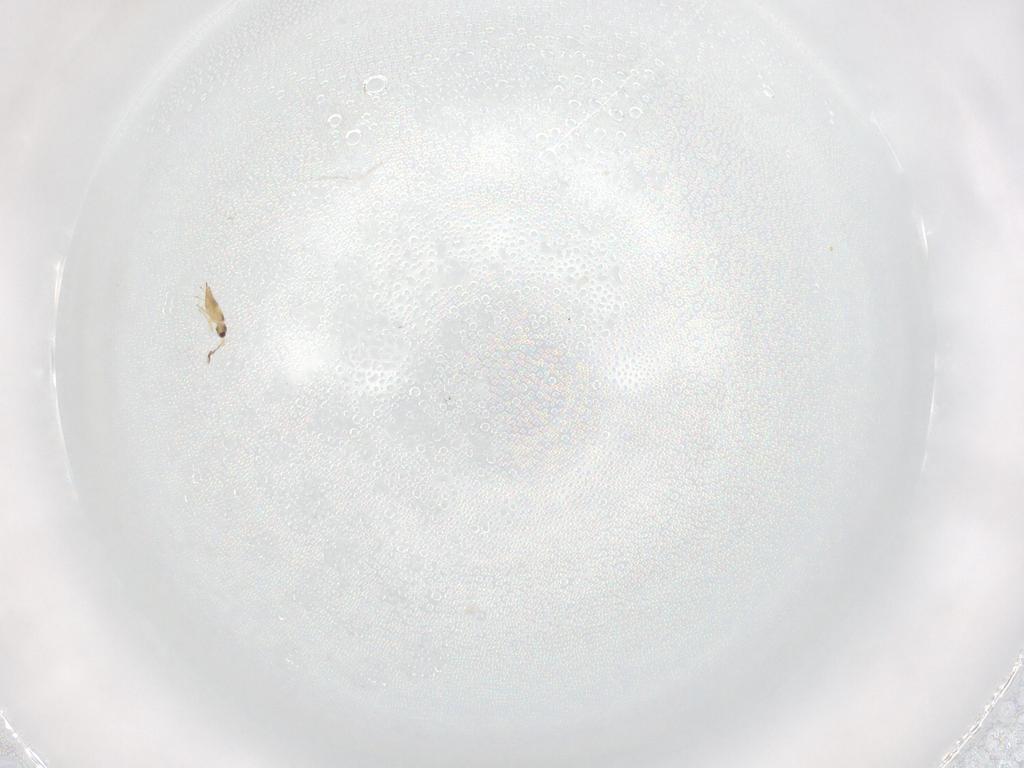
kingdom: Animalia
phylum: Arthropoda
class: Insecta
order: Hymenoptera
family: Mymaridae
